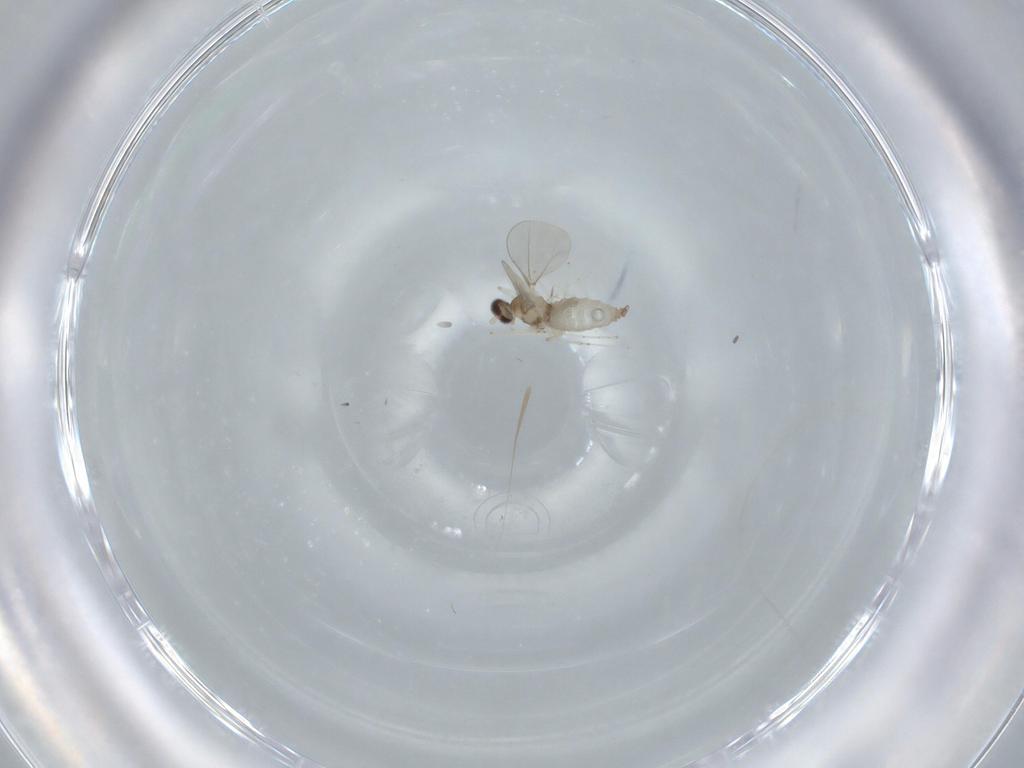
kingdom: Animalia
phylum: Arthropoda
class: Insecta
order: Diptera
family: Cecidomyiidae
